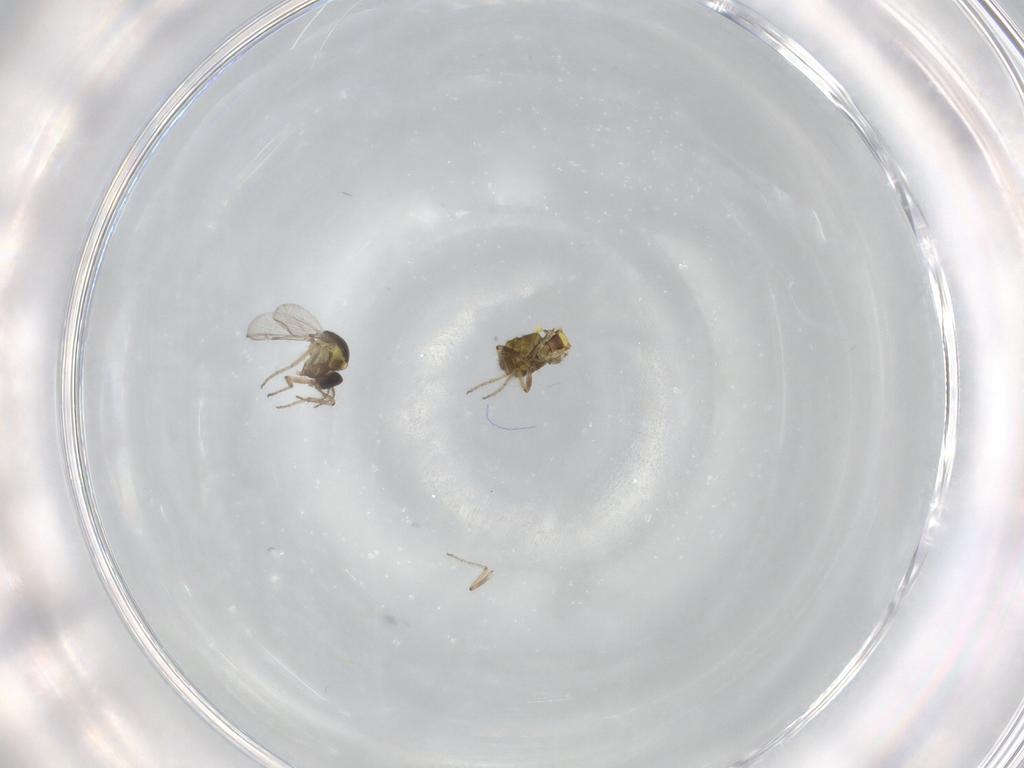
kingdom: Animalia
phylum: Arthropoda
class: Insecta
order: Diptera
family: Ceratopogonidae
